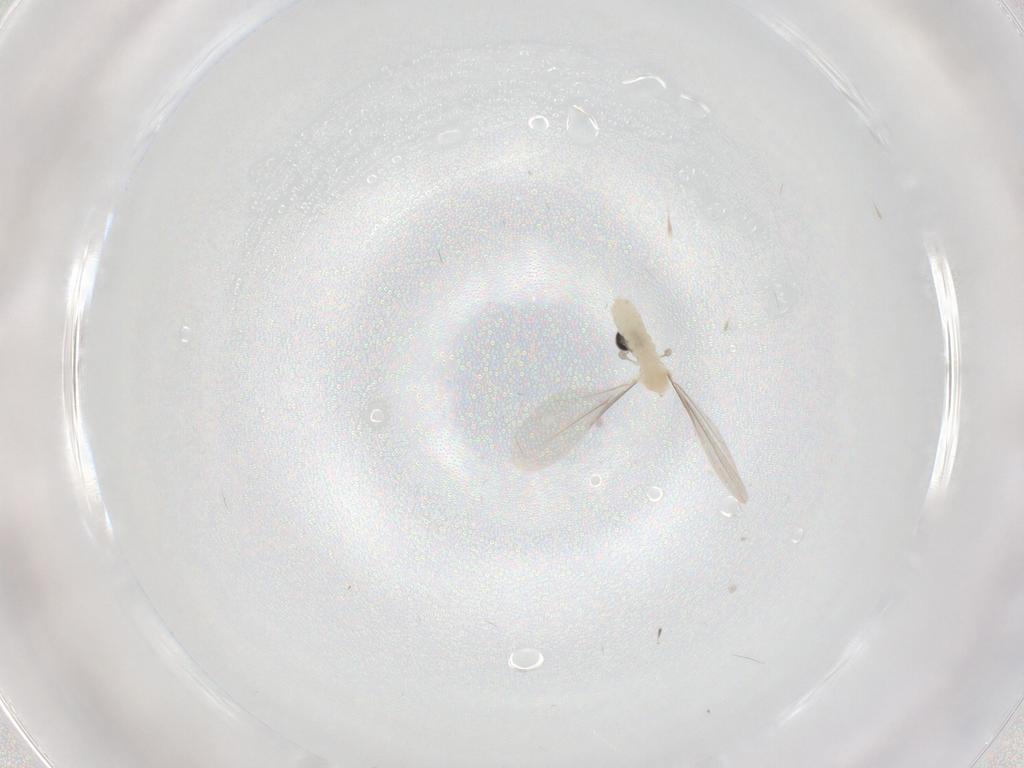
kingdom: Animalia
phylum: Arthropoda
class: Insecta
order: Diptera
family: Cecidomyiidae
